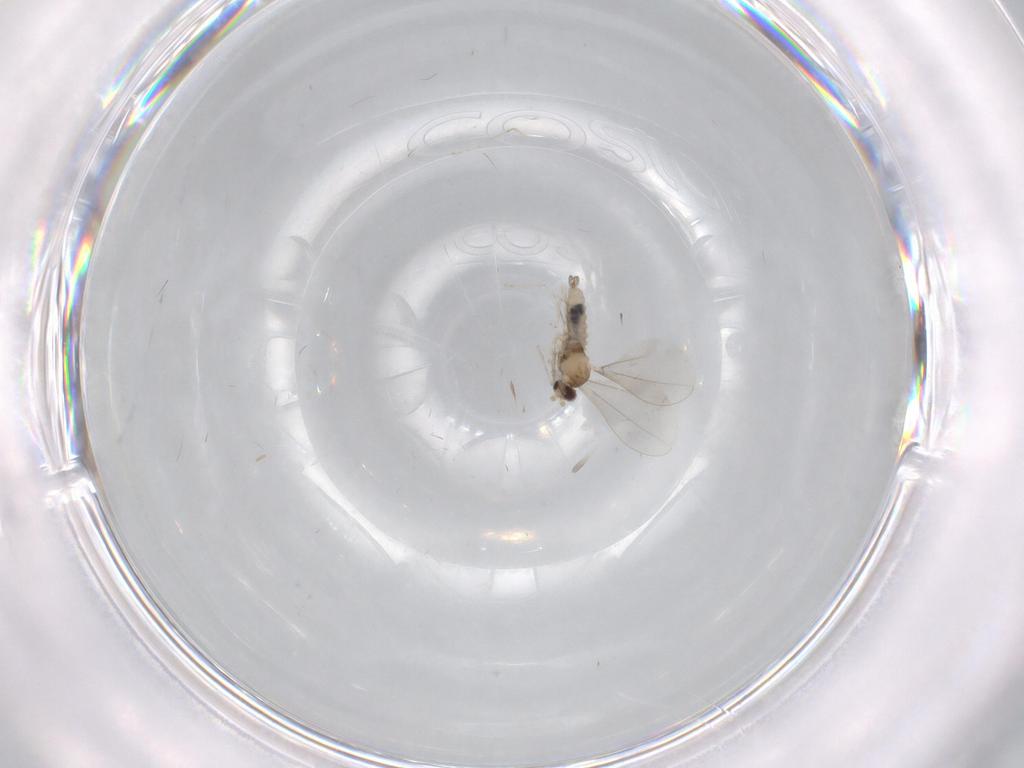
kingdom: Animalia
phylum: Arthropoda
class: Insecta
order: Diptera
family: Cecidomyiidae
